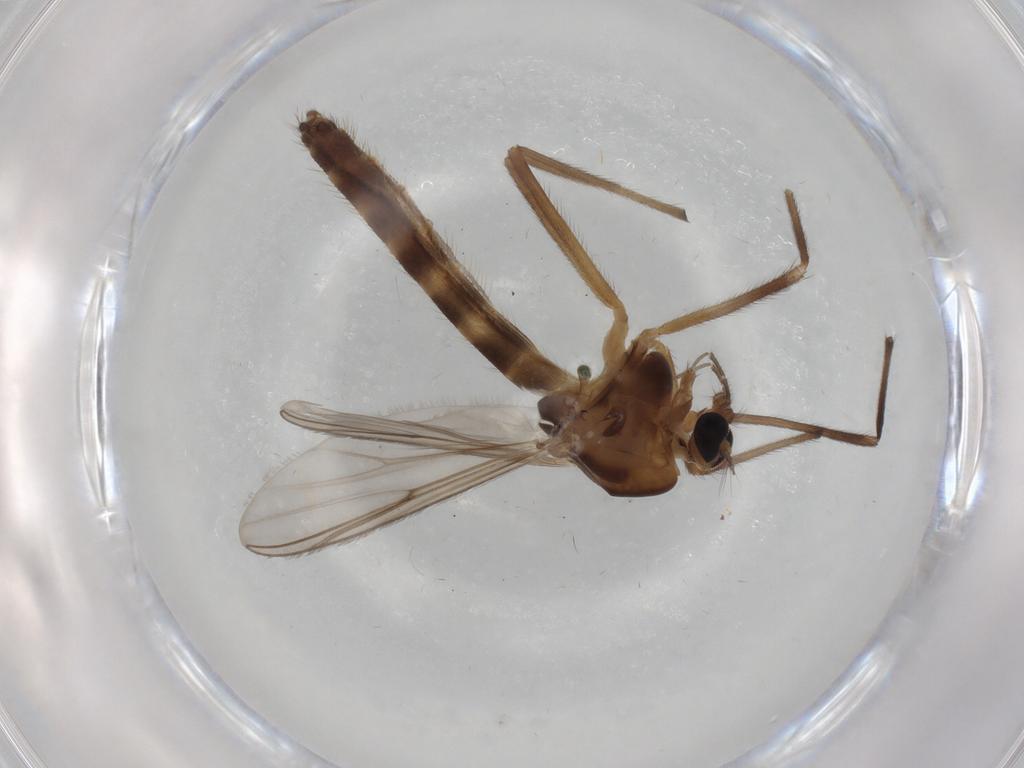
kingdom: Animalia
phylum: Arthropoda
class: Insecta
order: Diptera
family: Chironomidae
